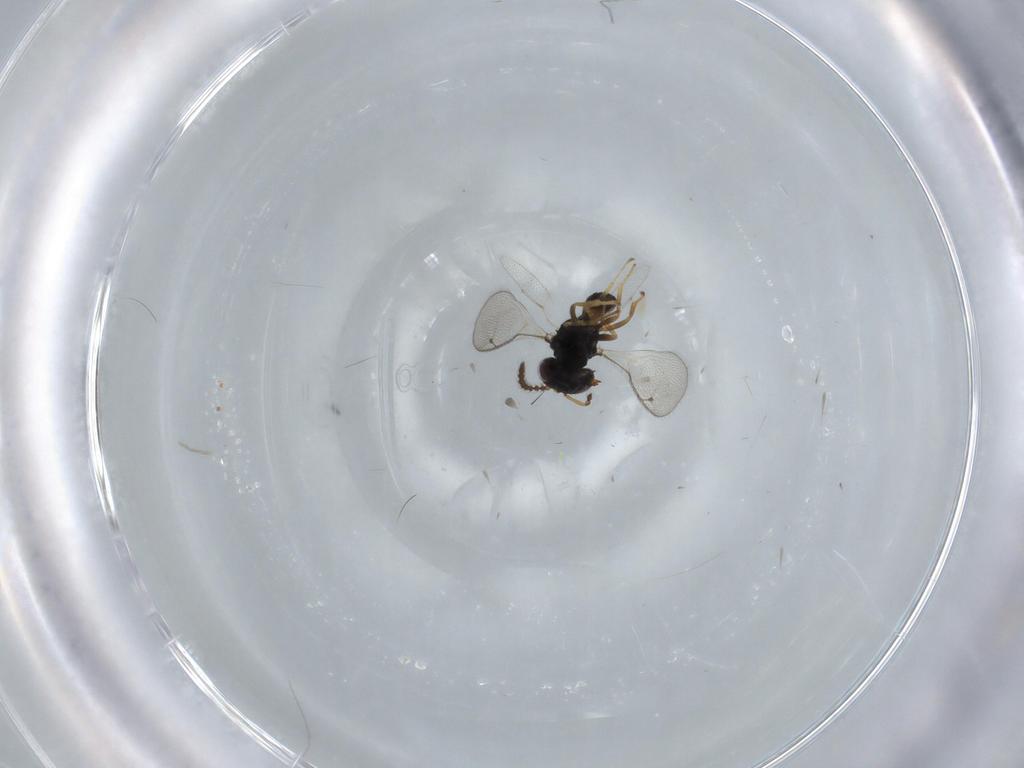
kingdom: Animalia
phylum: Arthropoda
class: Insecta
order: Hymenoptera
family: Pteromalidae
